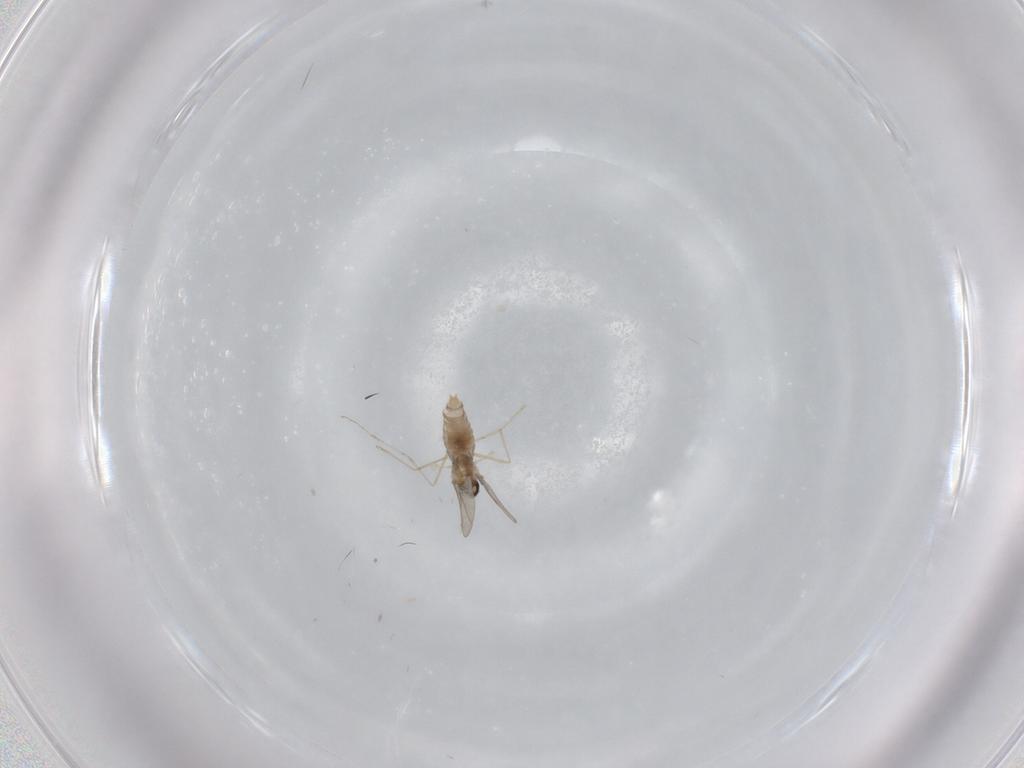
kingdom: Animalia
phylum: Arthropoda
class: Insecta
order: Diptera
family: Cecidomyiidae
